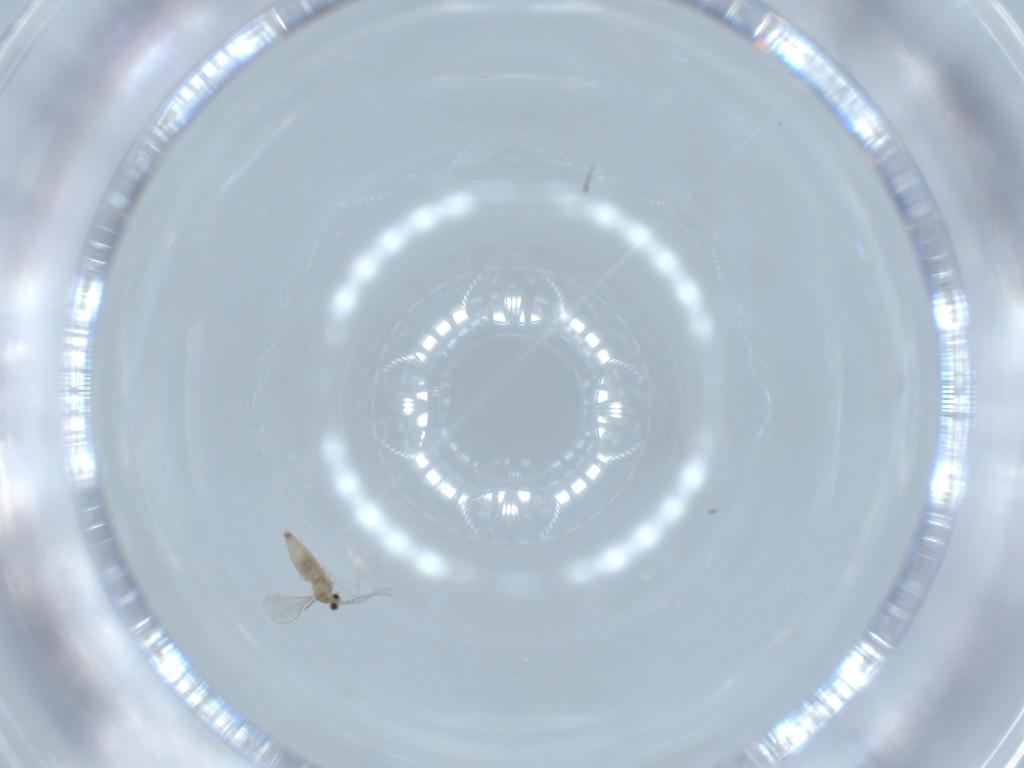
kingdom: Animalia
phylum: Arthropoda
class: Insecta
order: Diptera
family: Cecidomyiidae
